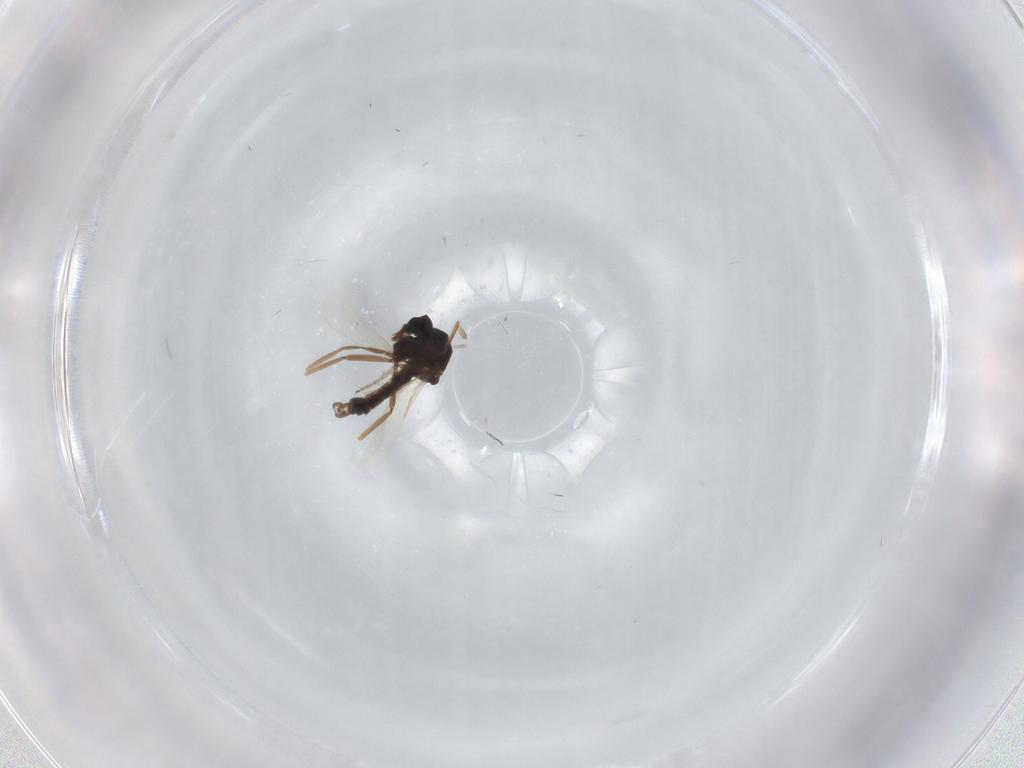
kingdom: Animalia
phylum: Arthropoda
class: Insecta
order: Diptera
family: Ceratopogonidae
